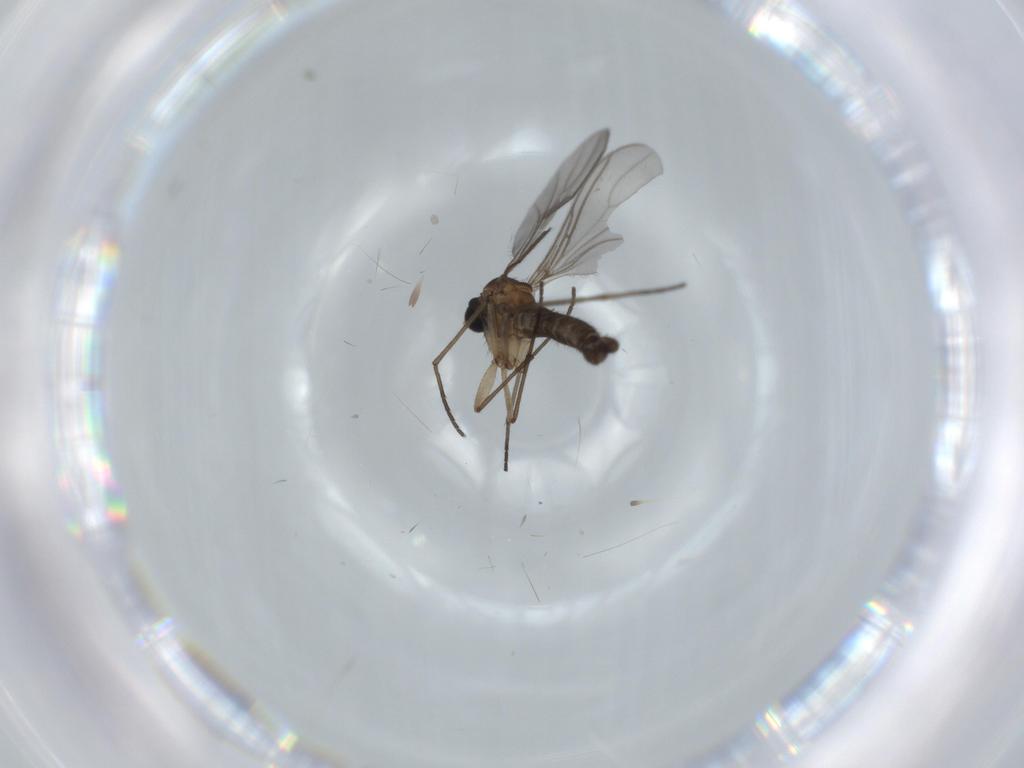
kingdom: Animalia
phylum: Arthropoda
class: Insecta
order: Diptera
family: Sciaridae
